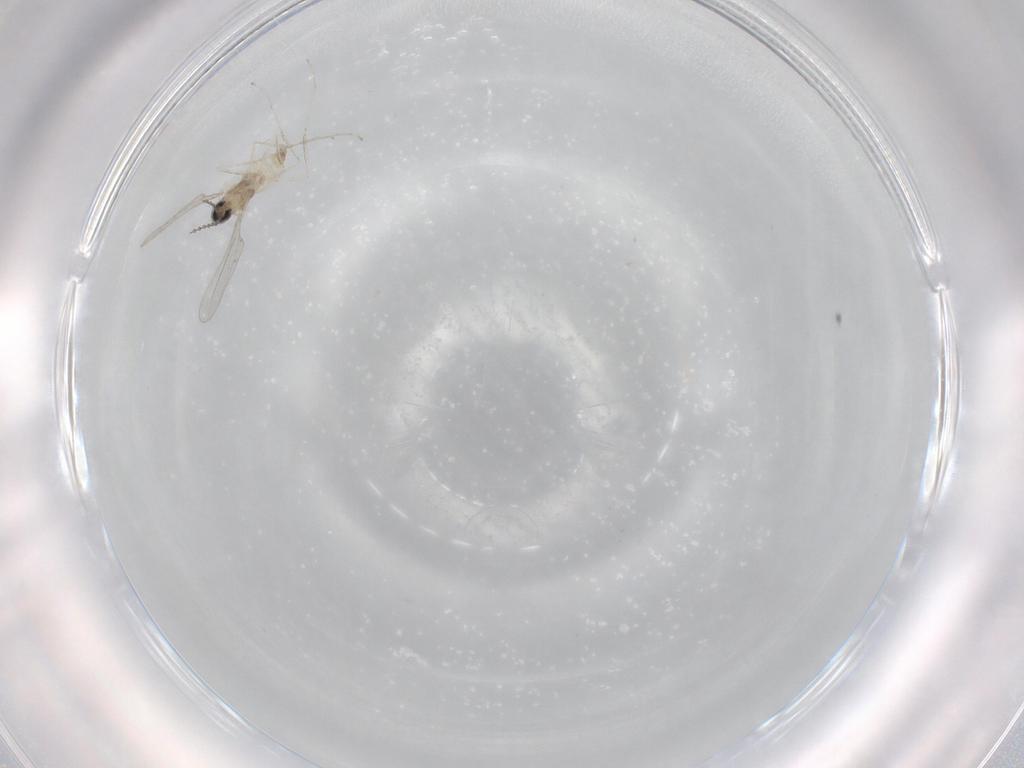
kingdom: Animalia
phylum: Arthropoda
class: Insecta
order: Diptera
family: Cecidomyiidae
